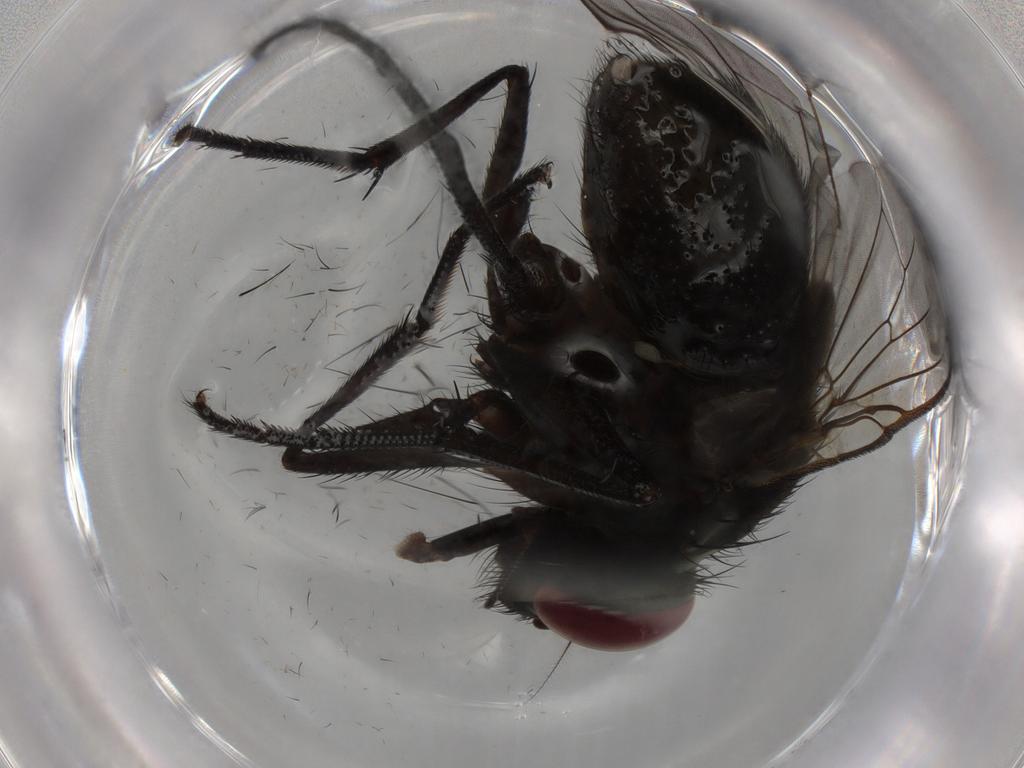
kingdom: Animalia
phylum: Arthropoda
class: Insecta
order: Diptera
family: Muscidae
